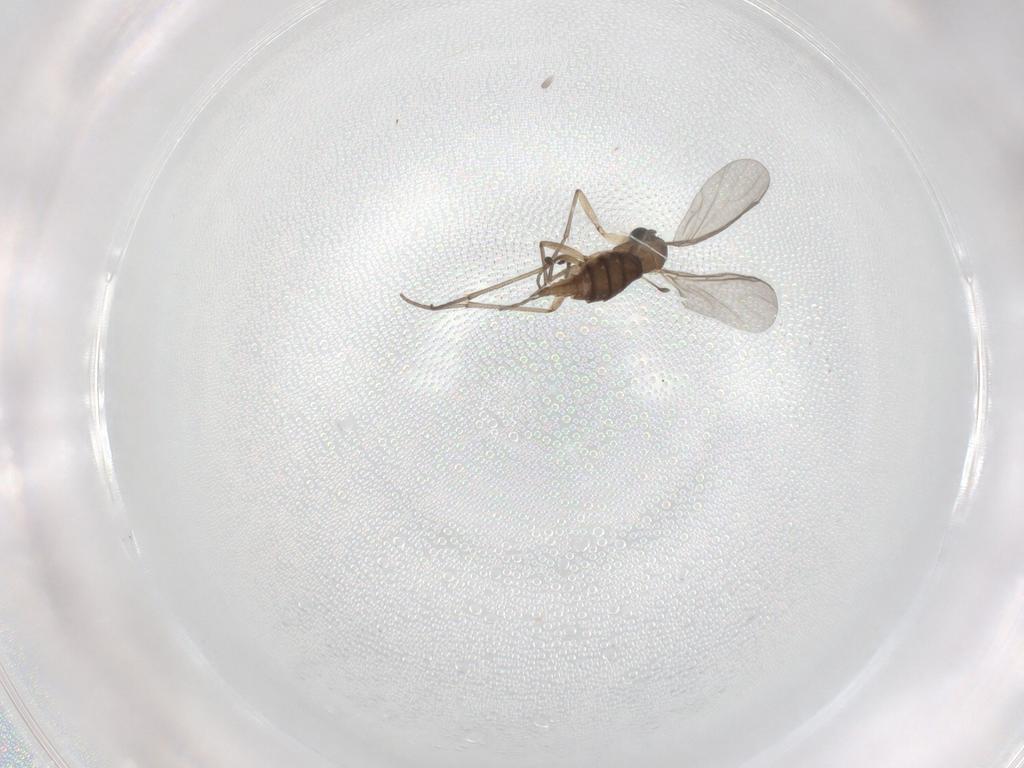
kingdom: Animalia
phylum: Arthropoda
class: Insecta
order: Diptera
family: Sciaridae
